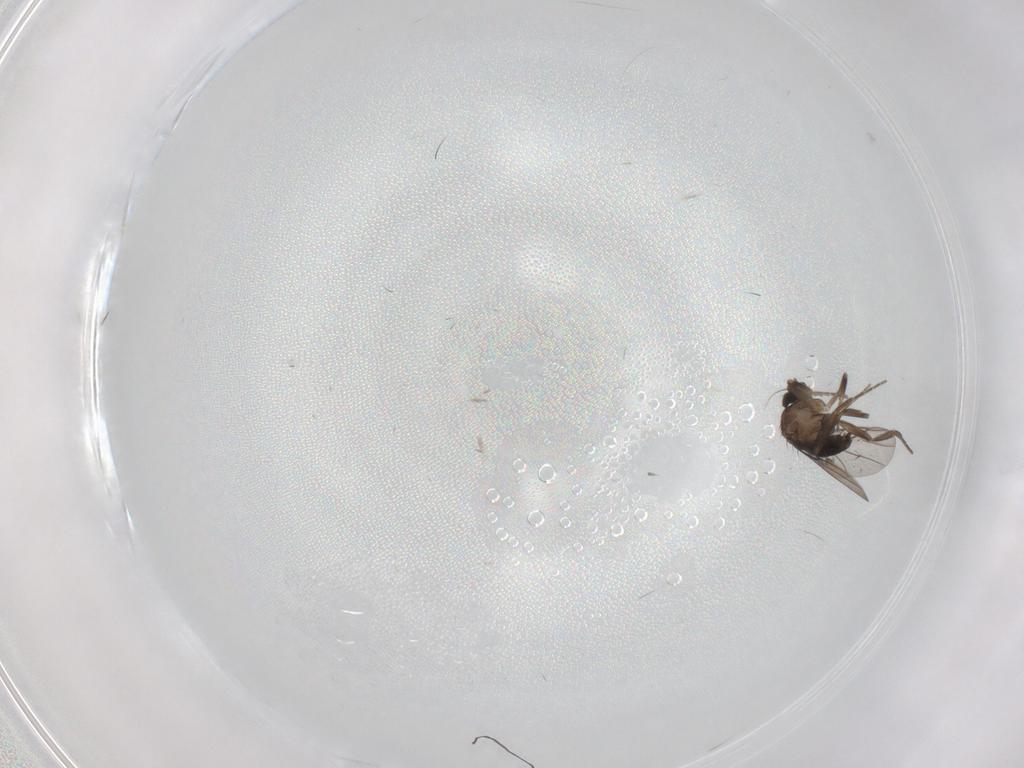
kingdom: Animalia
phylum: Arthropoda
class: Insecta
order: Diptera
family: Phoridae
